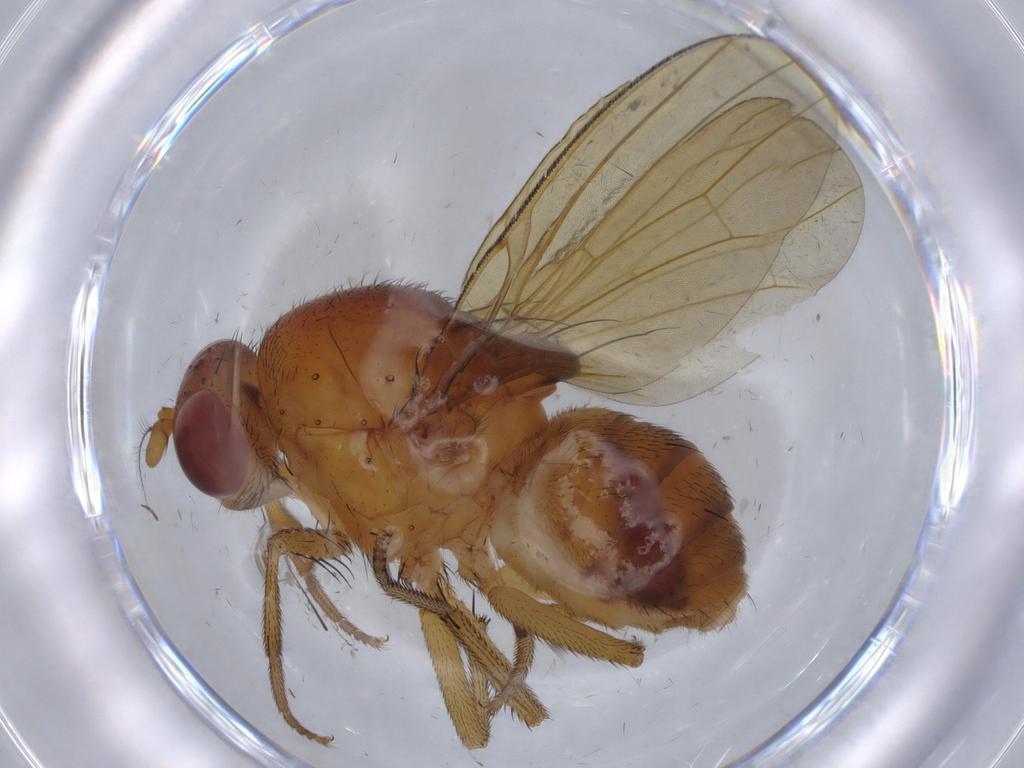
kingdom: Animalia
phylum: Arthropoda
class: Insecta
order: Diptera
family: Sciaridae
